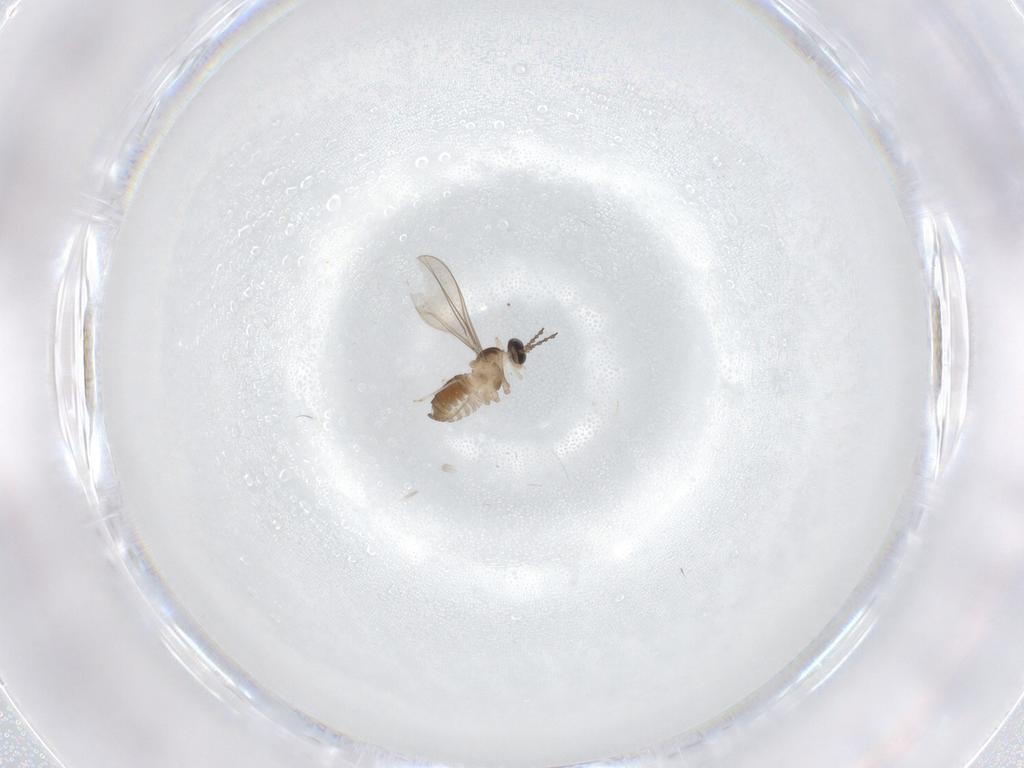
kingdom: Animalia
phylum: Arthropoda
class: Insecta
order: Diptera
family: Cecidomyiidae
